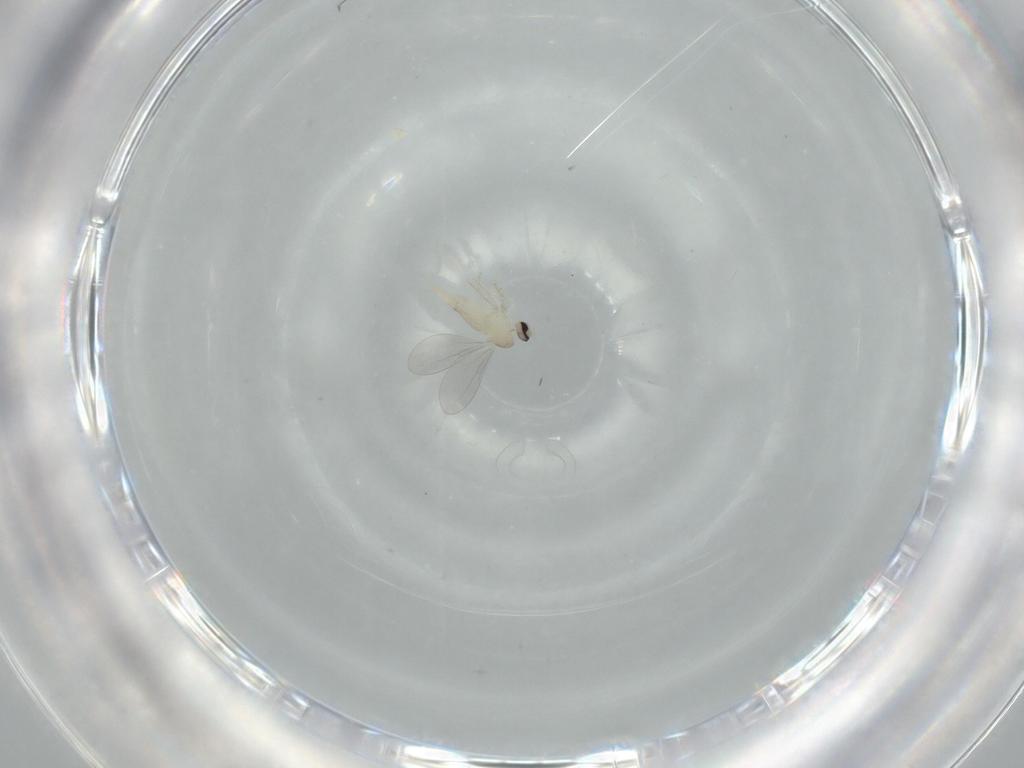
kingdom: Animalia
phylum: Arthropoda
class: Insecta
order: Diptera
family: Cecidomyiidae
